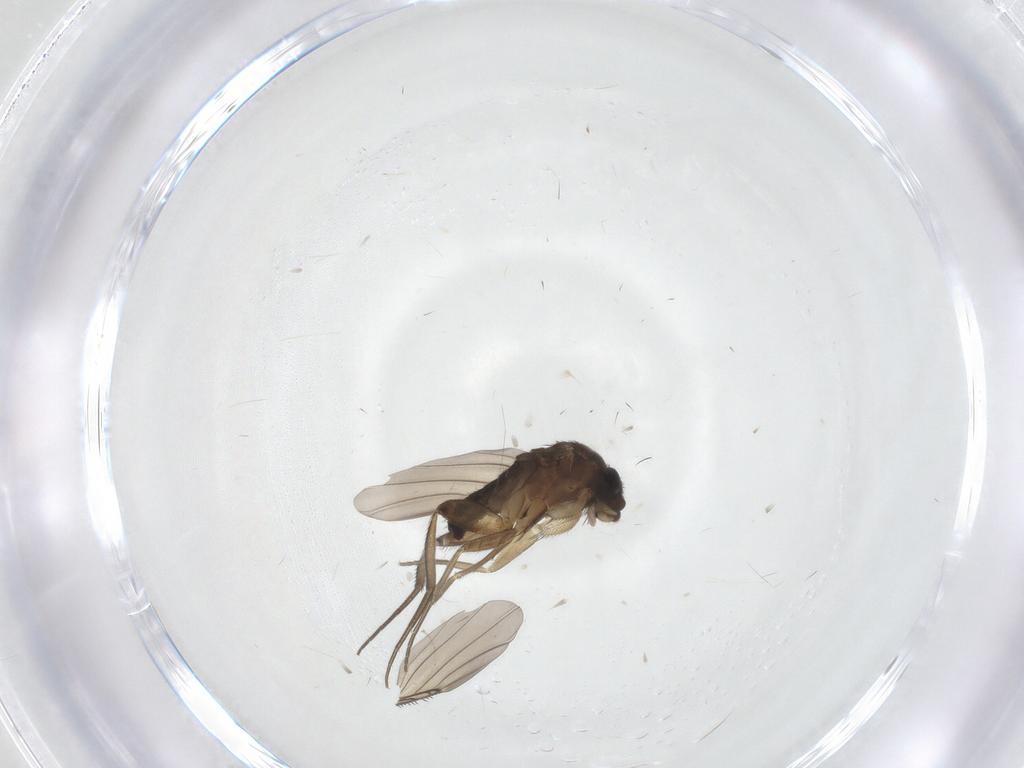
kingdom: Animalia
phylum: Arthropoda
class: Insecta
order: Diptera
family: Phoridae
